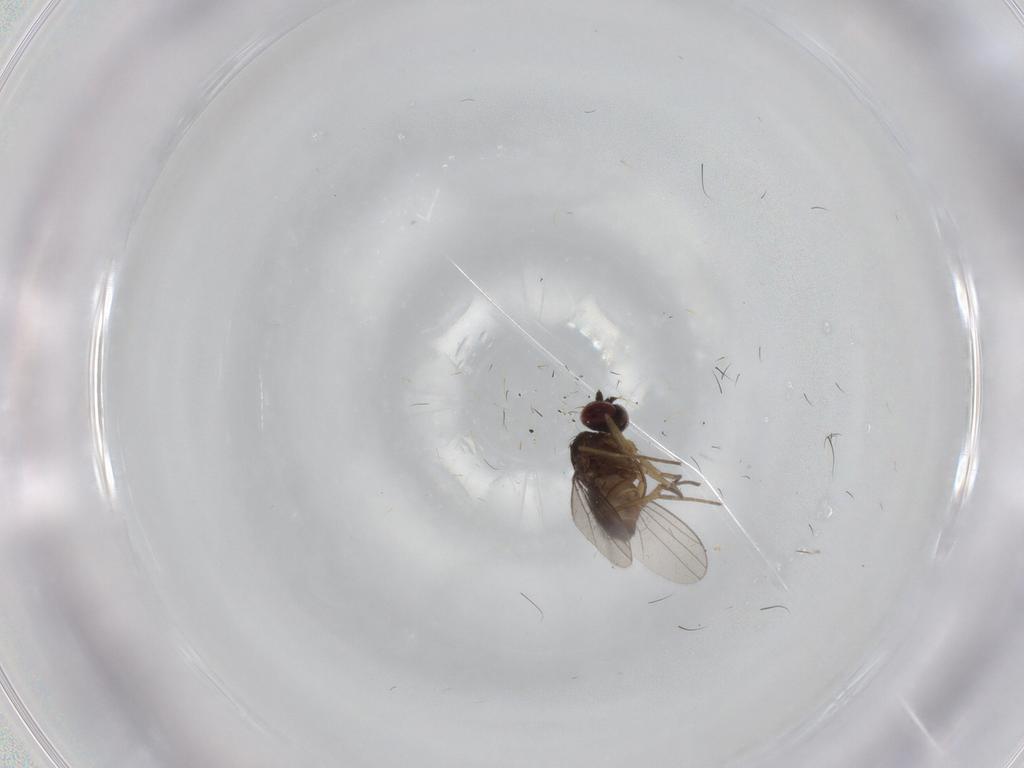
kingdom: Animalia
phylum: Arthropoda
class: Insecta
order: Diptera
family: Dolichopodidae
